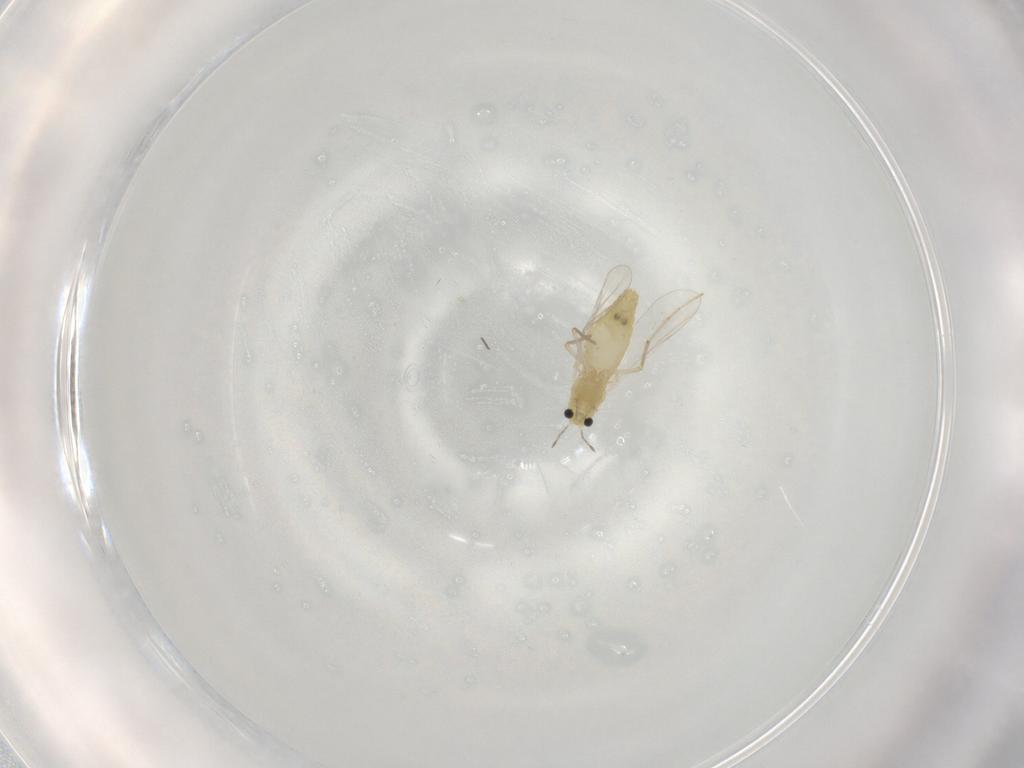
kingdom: Animalia
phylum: Arthropoda
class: Insecta
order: Diptera
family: Chironomidae
